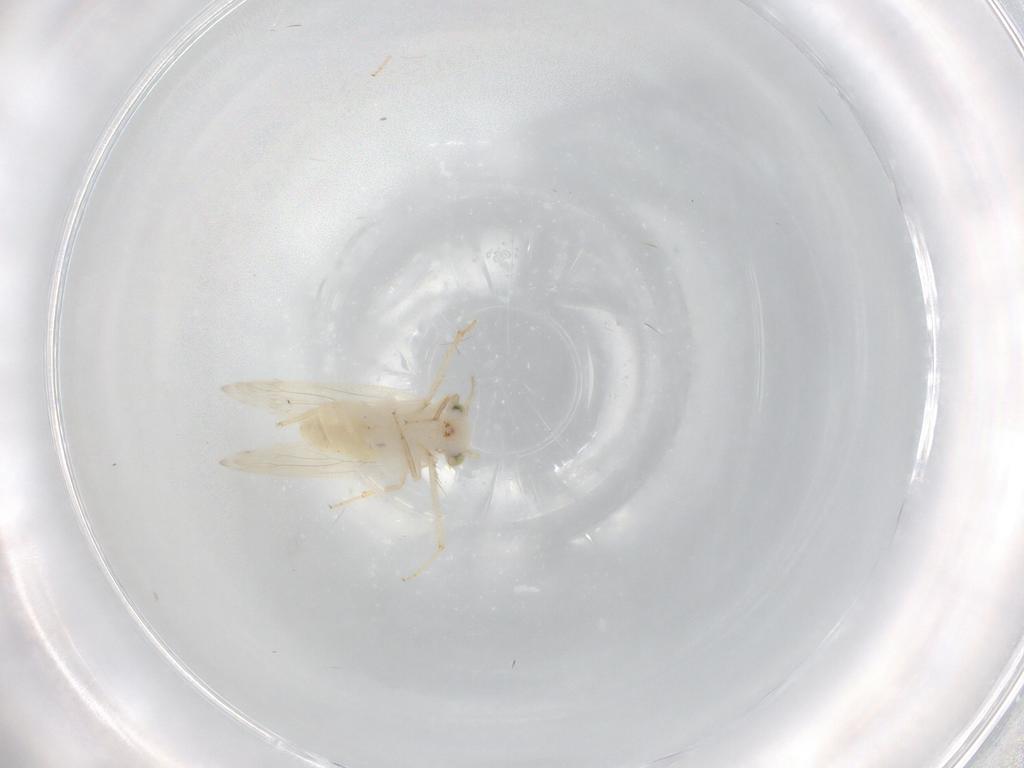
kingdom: Animalia
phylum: Arthropoda
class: Insecta
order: Psocodea
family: Lepidopsocidae
